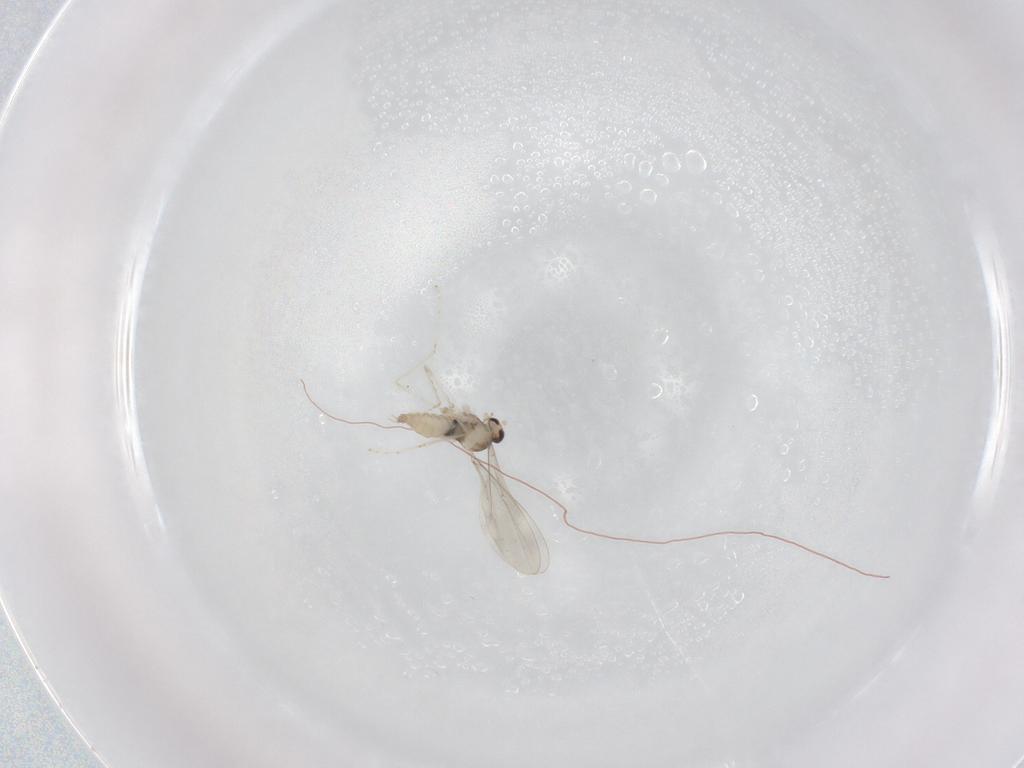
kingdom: Animalia
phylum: Arthropoda
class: Insecta
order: Diptera
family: Cecidomyiidae
